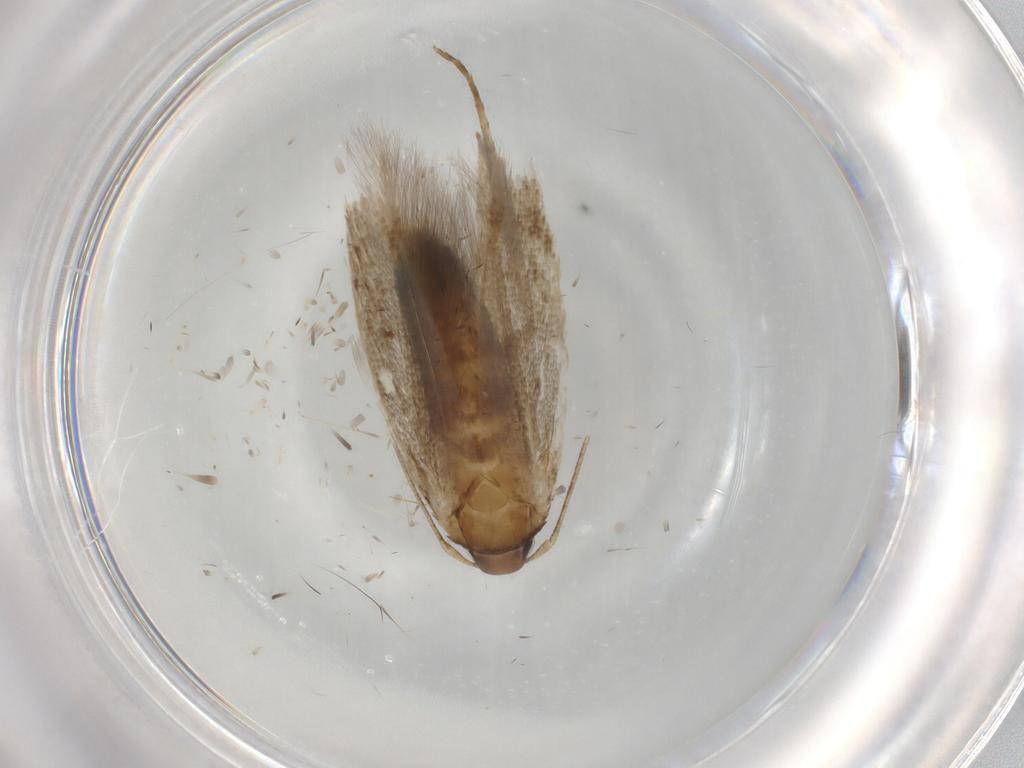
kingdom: Animalia
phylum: Arthropoda
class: Insecta
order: Lepidoptera
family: Cosmopterigidae
